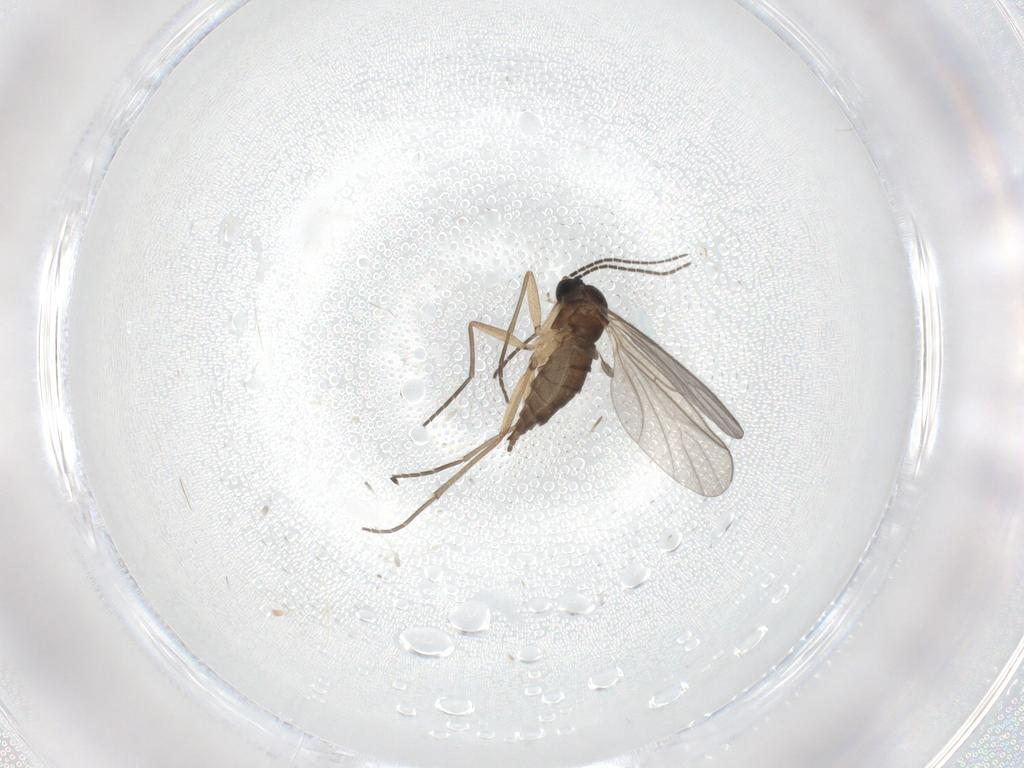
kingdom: Animalia
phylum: Arthropoda
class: Insecta
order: Diptera
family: Sciaridae
